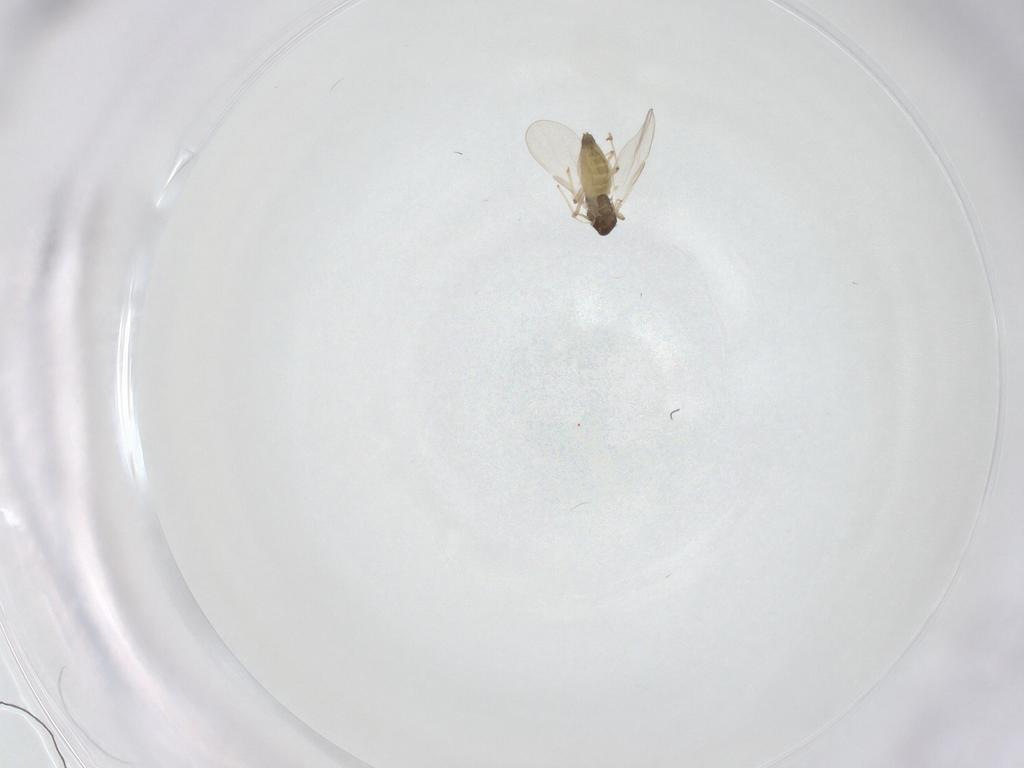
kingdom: Animalia
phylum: Arthropoda
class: Insecta
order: Diptera
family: Chironomidae
